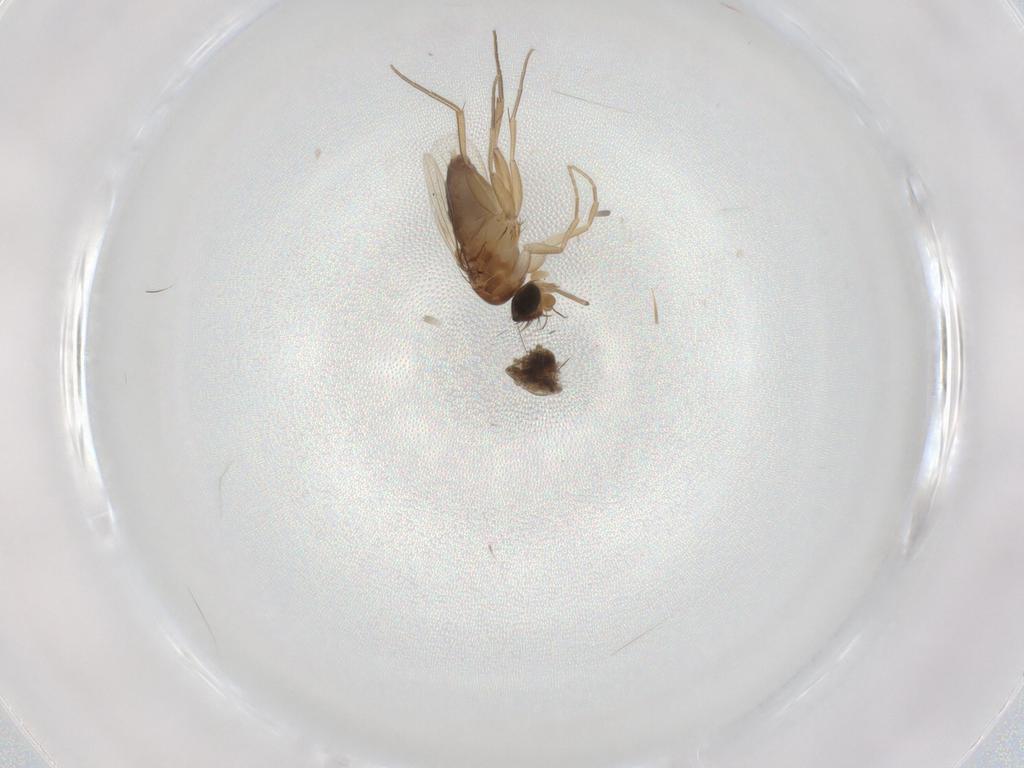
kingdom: Animalia
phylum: Arthropoda
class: Insecta
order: Diptera
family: Phoridae
